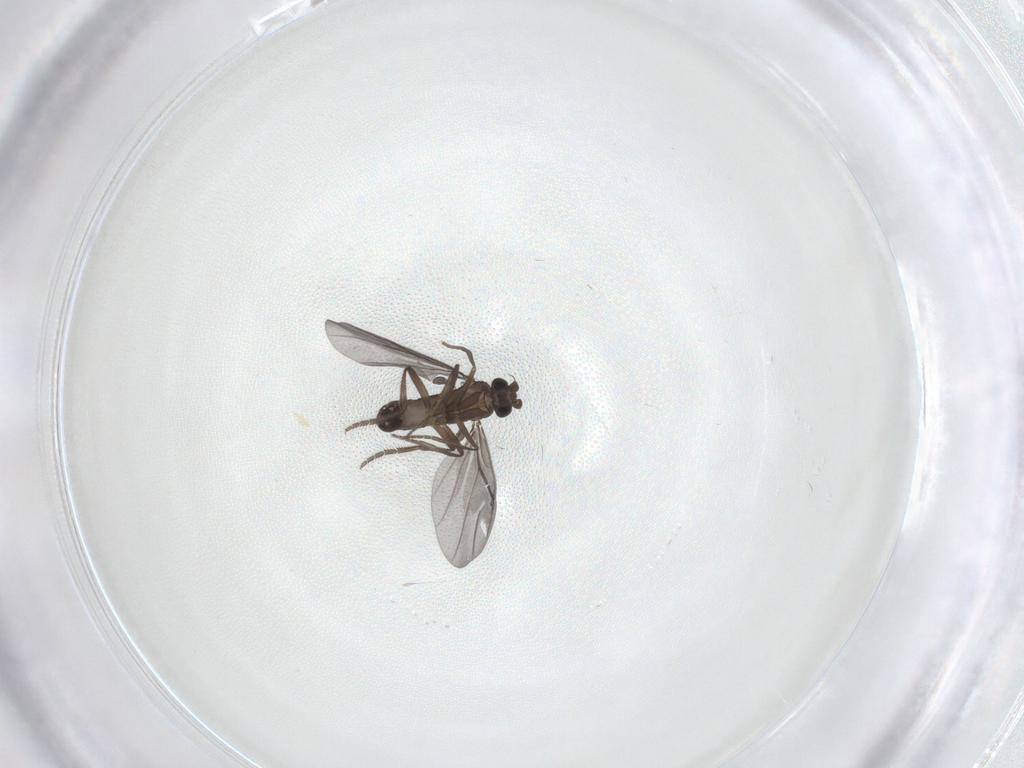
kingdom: Animalia
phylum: Arthropoda
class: Insecta
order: Diptera
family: Phoridae
